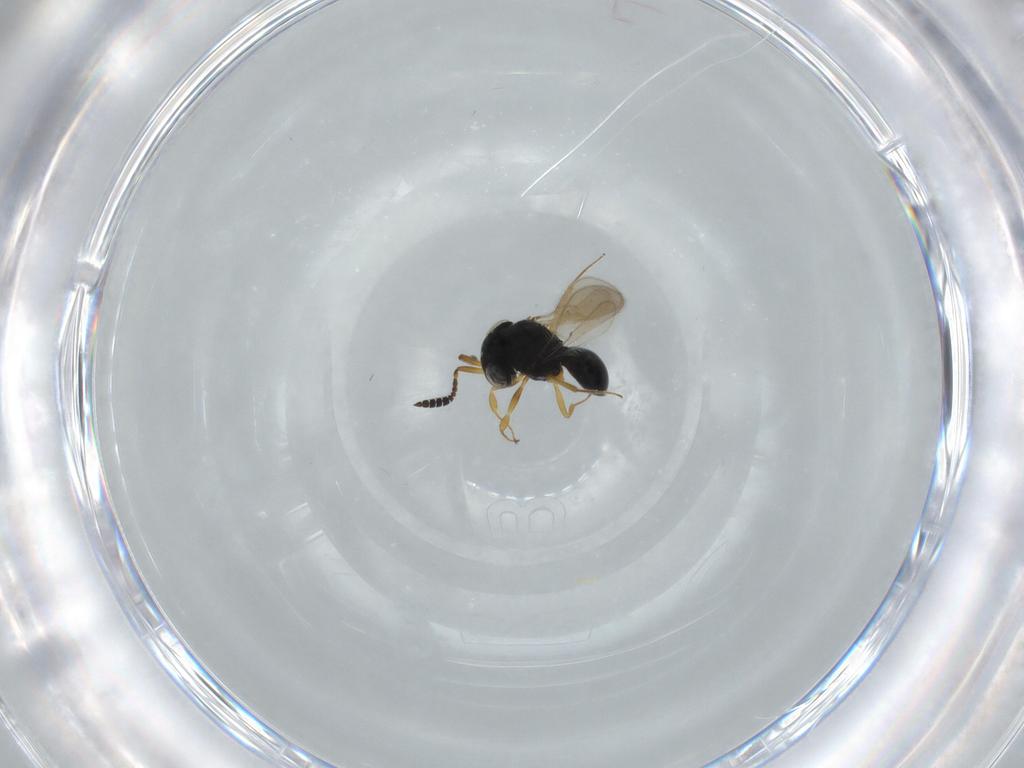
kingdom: Animalia
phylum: Arthropoda
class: Insecta
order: Hymenoptera
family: Scelionidae
